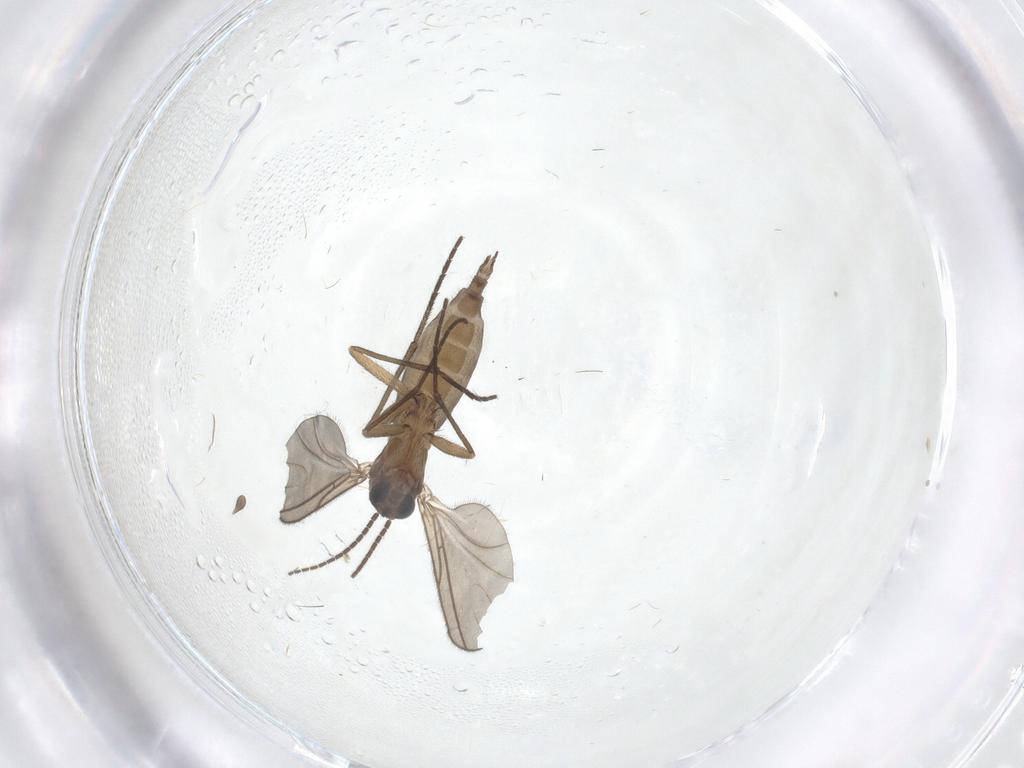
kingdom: Animalia
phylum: Arthropoda
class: Insecta
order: Diptera
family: Sciaridae
